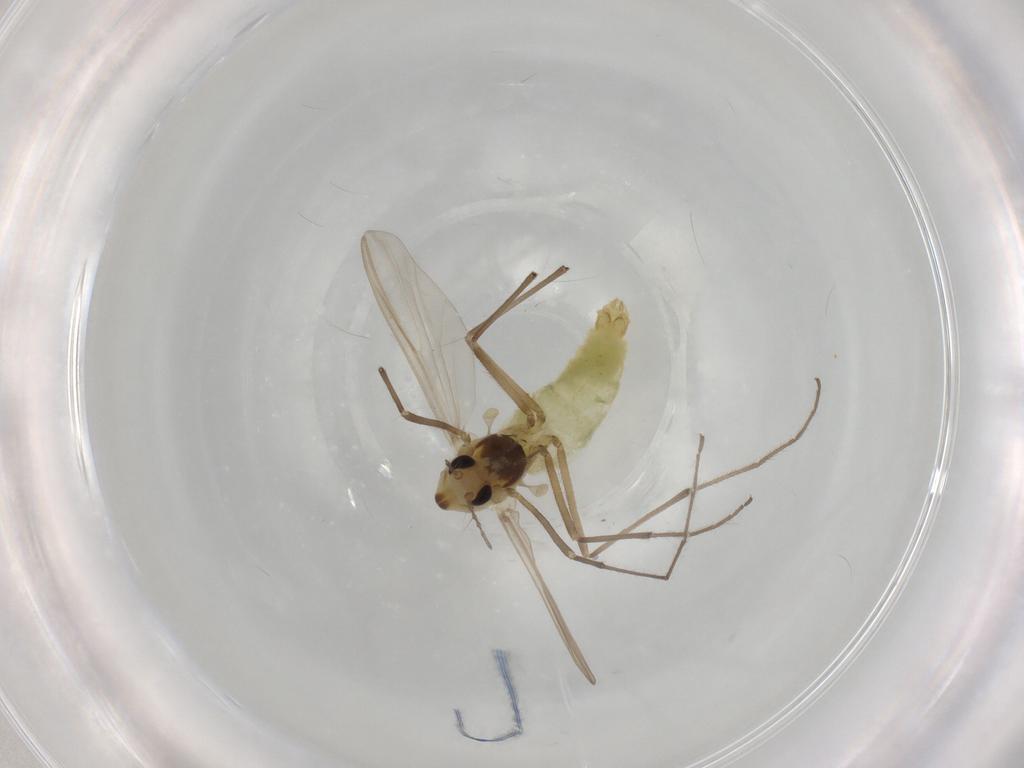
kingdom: Animalia
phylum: Arthropoda
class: Insecta
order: Diptera
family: Chironomidae
